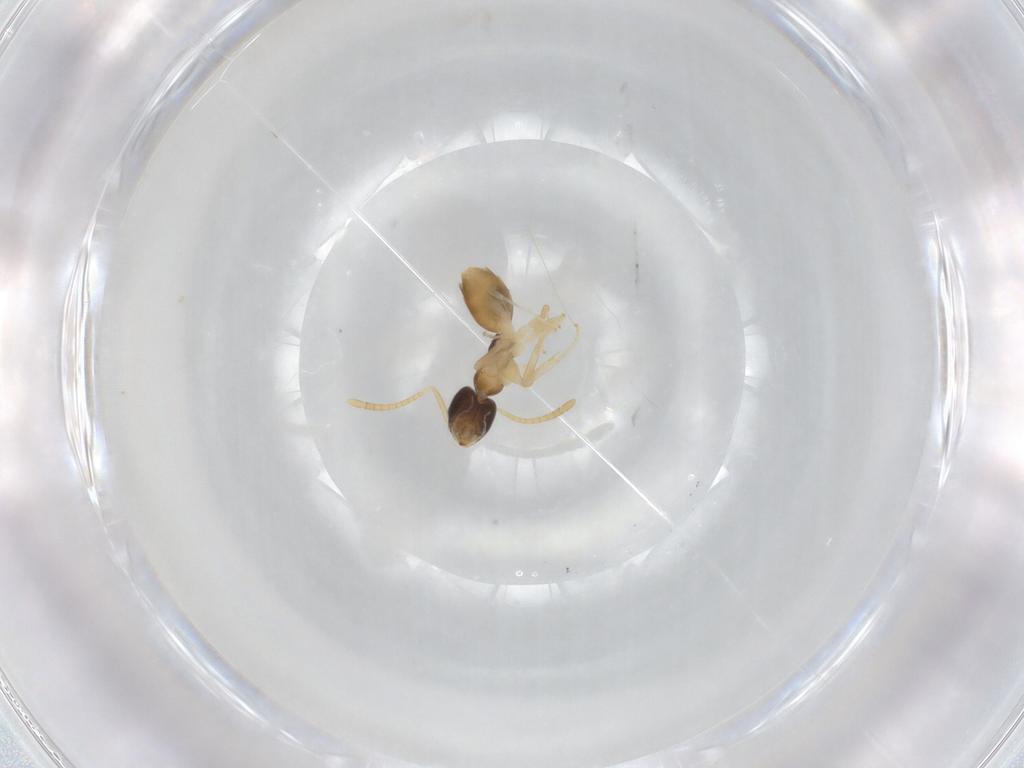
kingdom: Animalia
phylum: Arthropoda
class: Insecta
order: Hymenoptera
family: Formicidae
